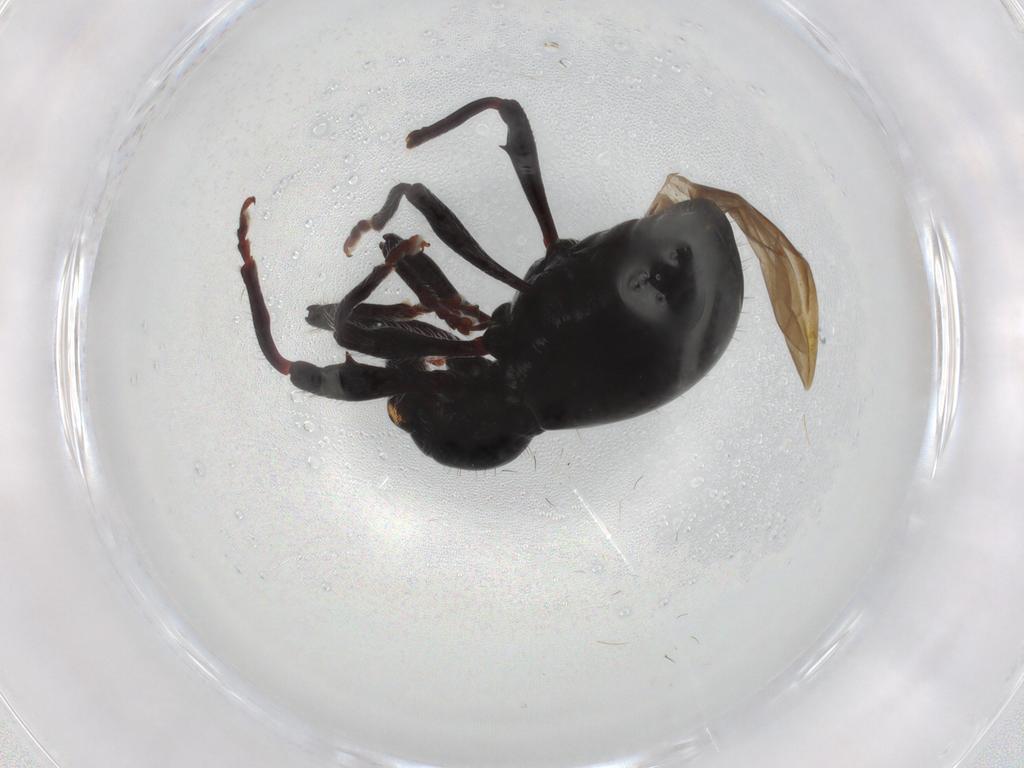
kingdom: Animalia
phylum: Arthropoda
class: Insecta
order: Coleoptera
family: Curculionidae
